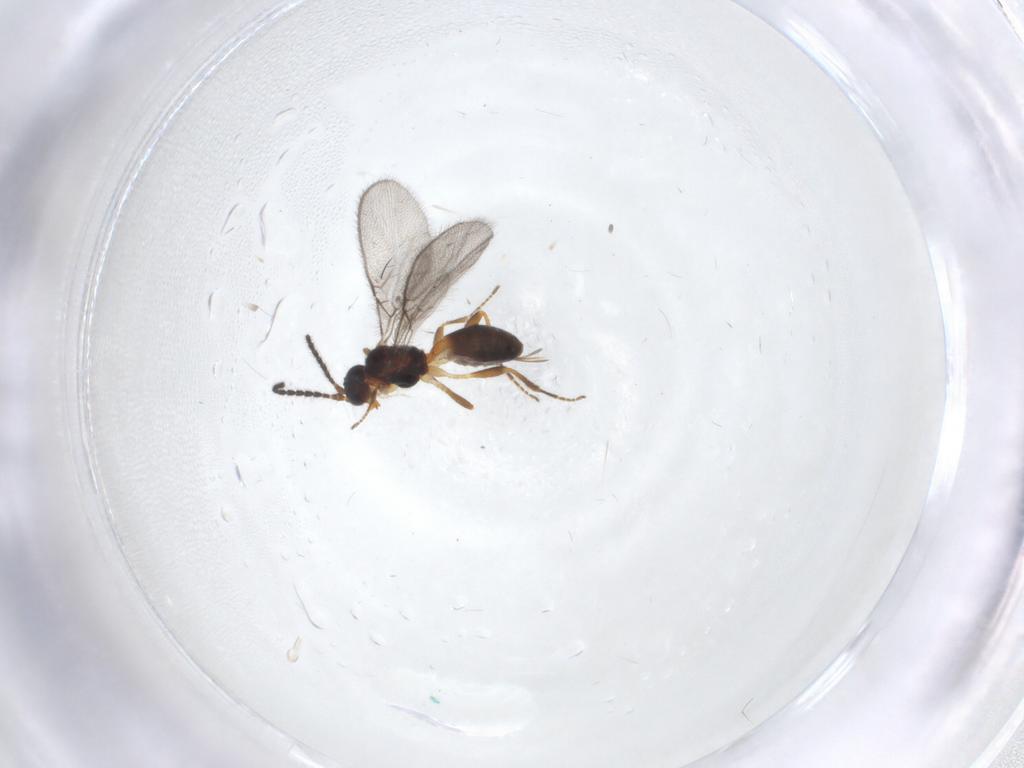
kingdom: Animalia
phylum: Arthropoda
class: Insecta
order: Hymenoptera
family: Braconidae
